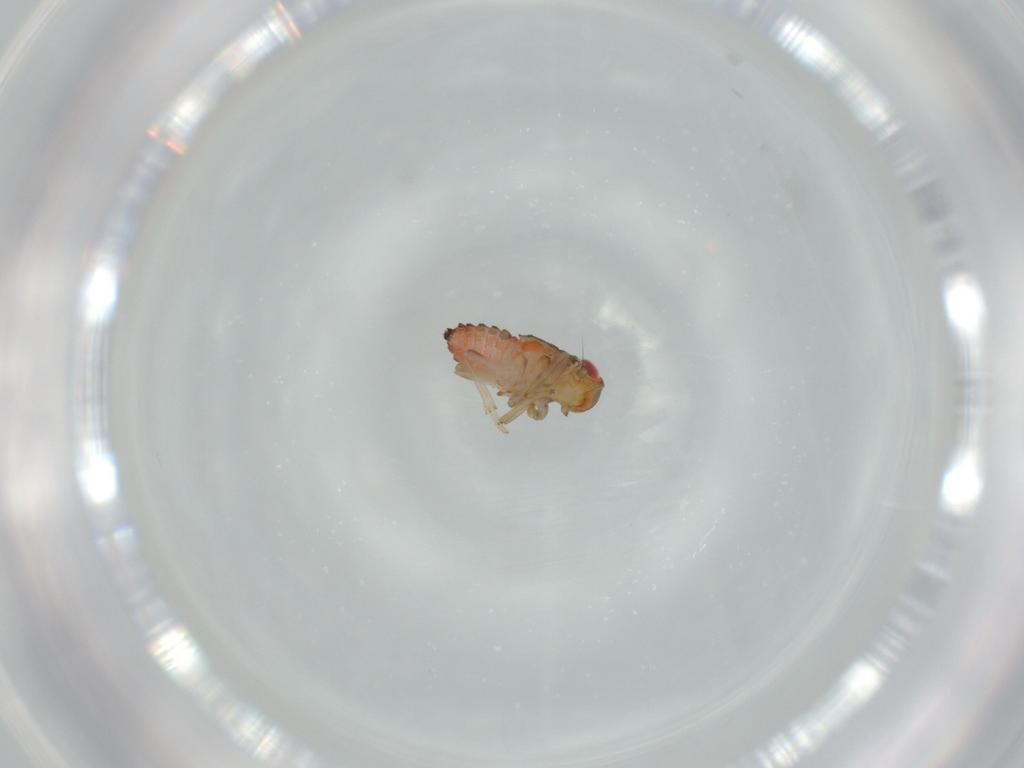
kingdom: Animalia
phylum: Arthropoda
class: Insecta
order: Hemiptera
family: Issidae
